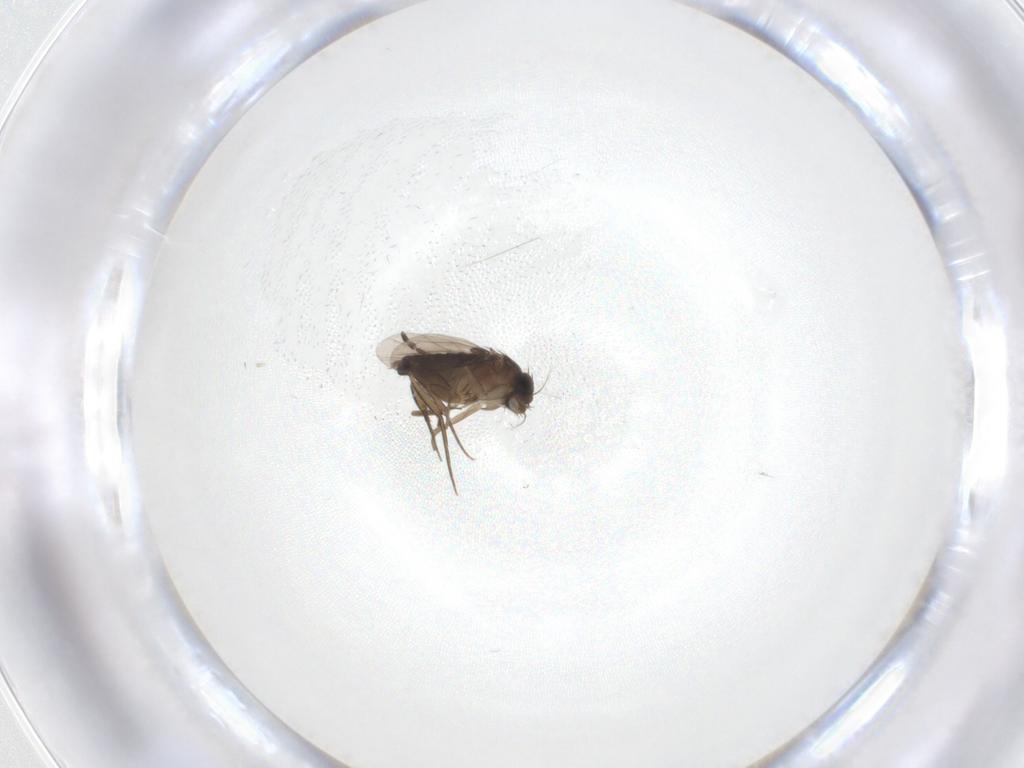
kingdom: Animalia
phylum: Arthropoda
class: Insecta
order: Diptera
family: Phoridae
